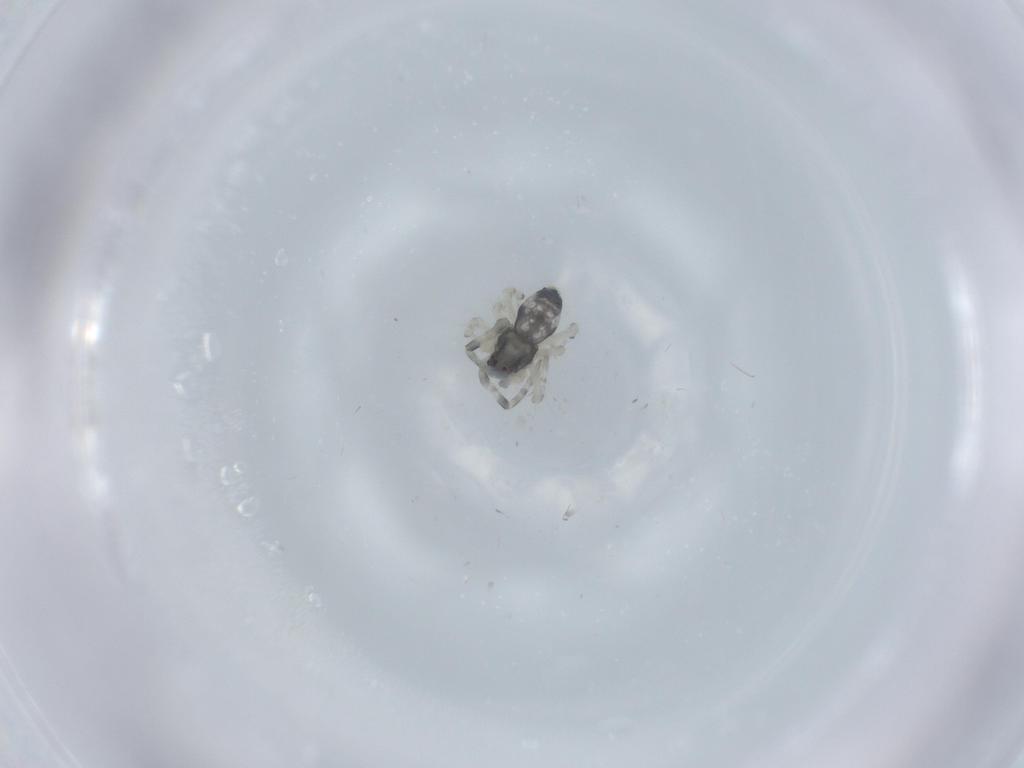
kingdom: Animalia
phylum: Arthropoda
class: Arachnida
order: Araneae
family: Uloboridae
